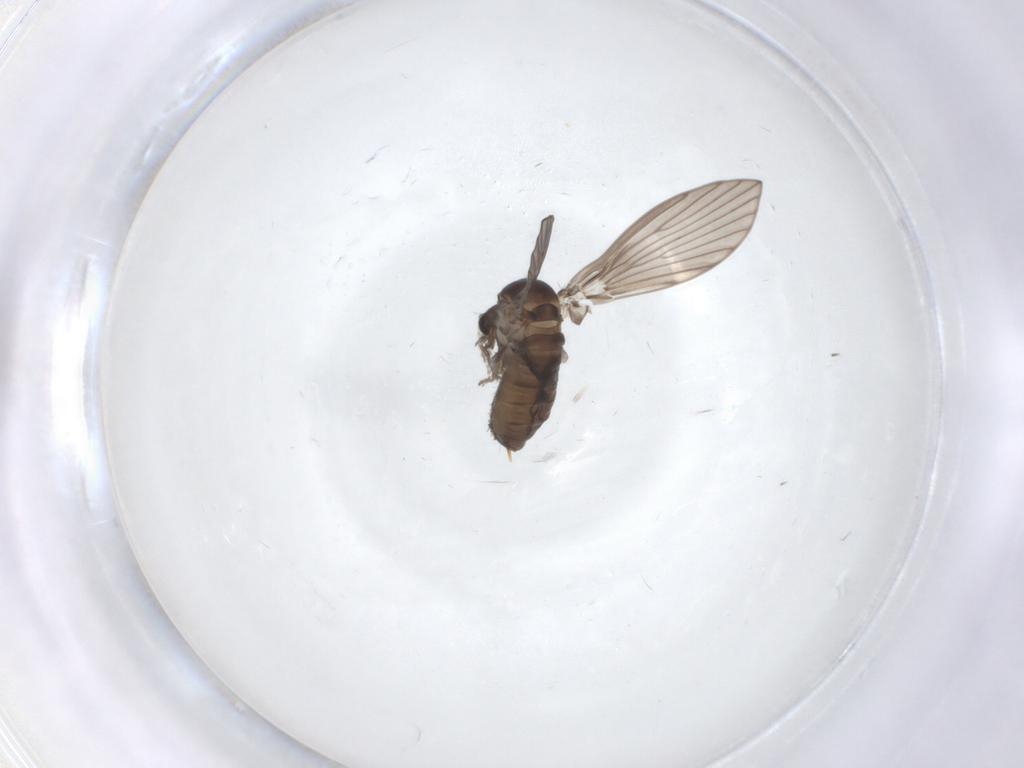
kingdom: Animalia
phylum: Arthropoda
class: Insecta
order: Diptera
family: Psychodidae
